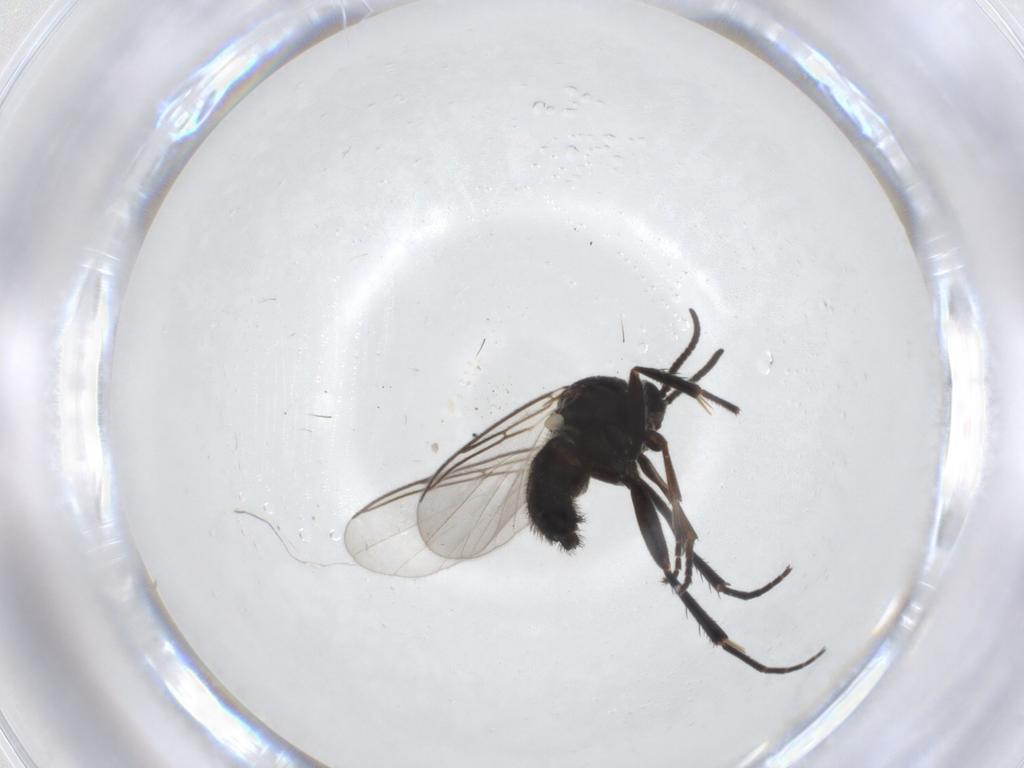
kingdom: Animalia
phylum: Arthropoda
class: Insecta
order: Diptera
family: Mycetophilidae
